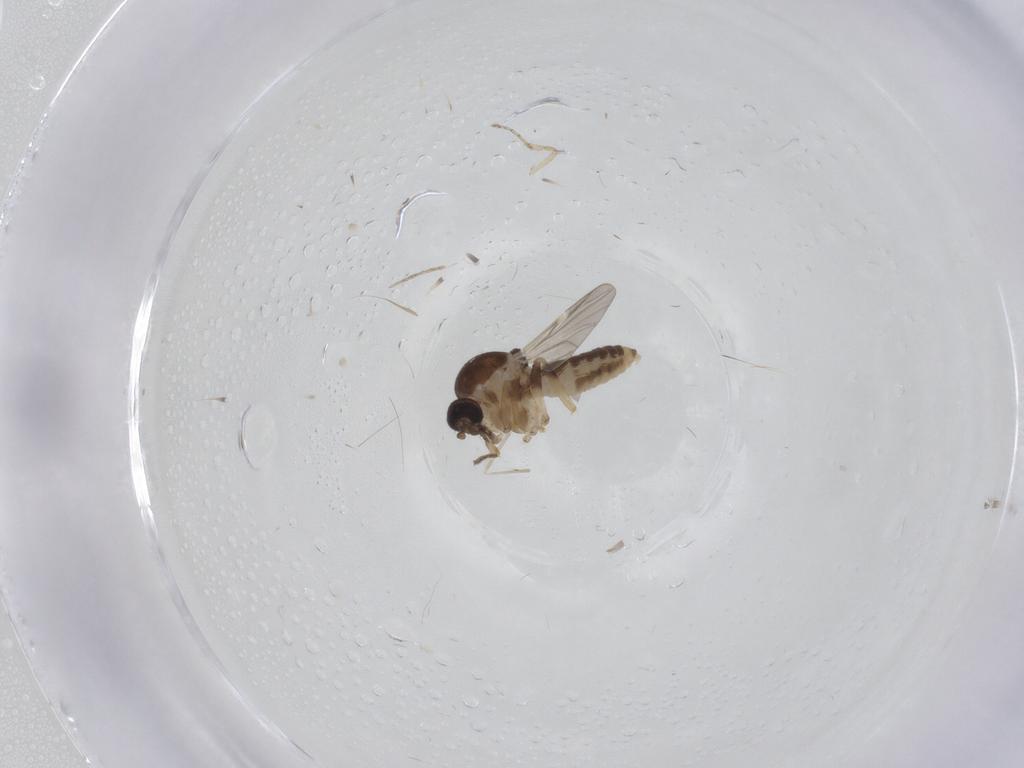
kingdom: Animalia
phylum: Arthropoda
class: Insecta
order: Diptera
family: Ceratopogonidae
